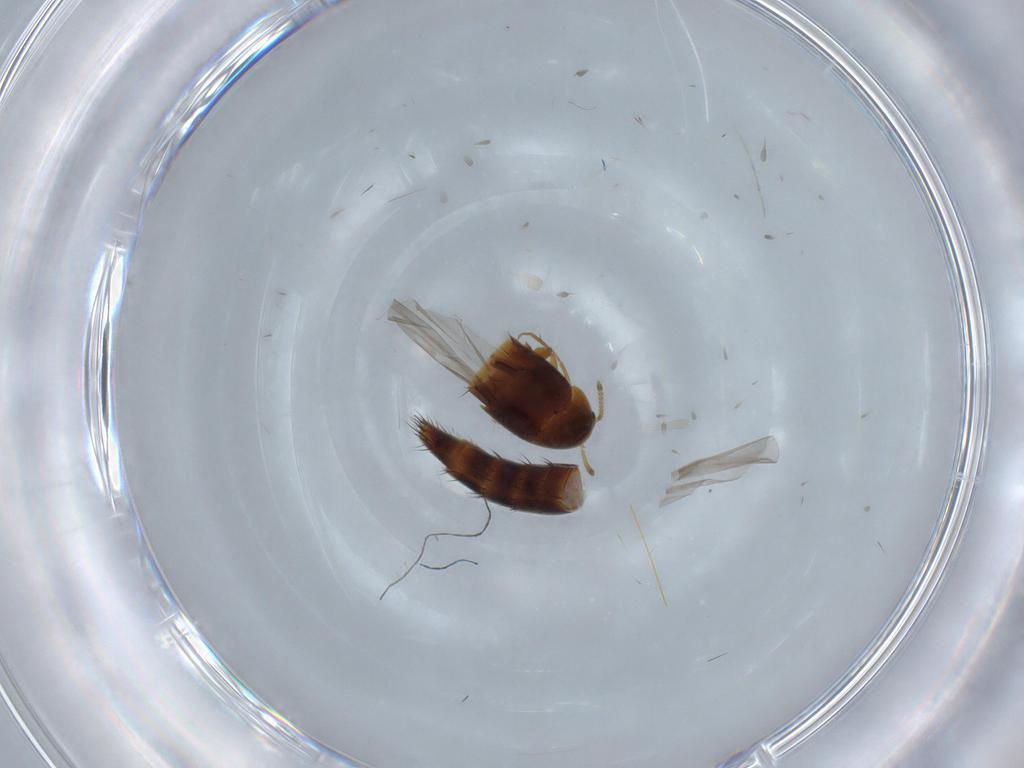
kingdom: Animalia
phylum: Arthropoda
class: Insecta
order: Coleoptera
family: Staphylinidae
